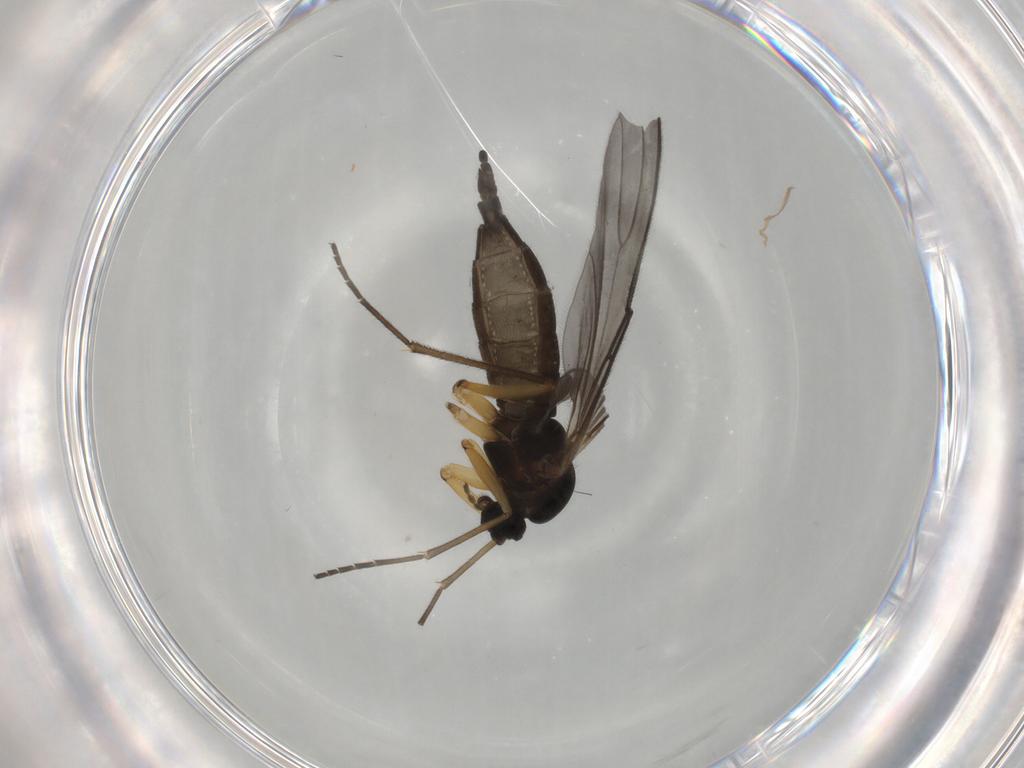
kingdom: Animalia
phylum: Arthropoda
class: Insecta
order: Diptera
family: Sciaridae
